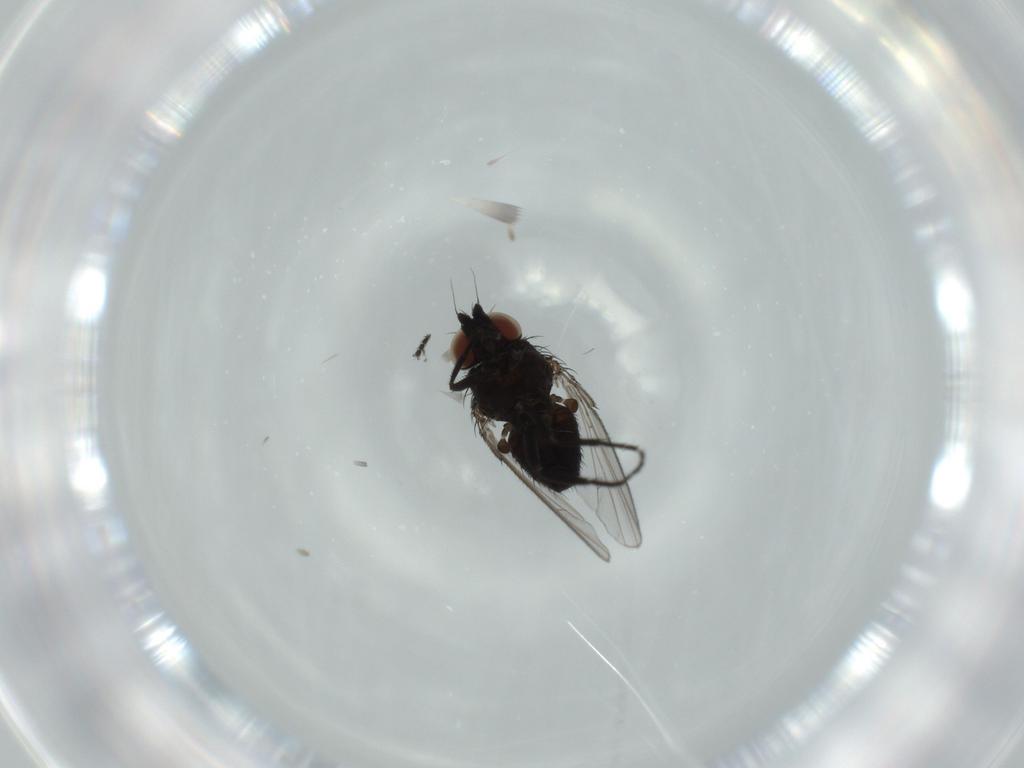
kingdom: Animalia
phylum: Arthropoda
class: Insecta
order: Diptera
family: Milichiidae
